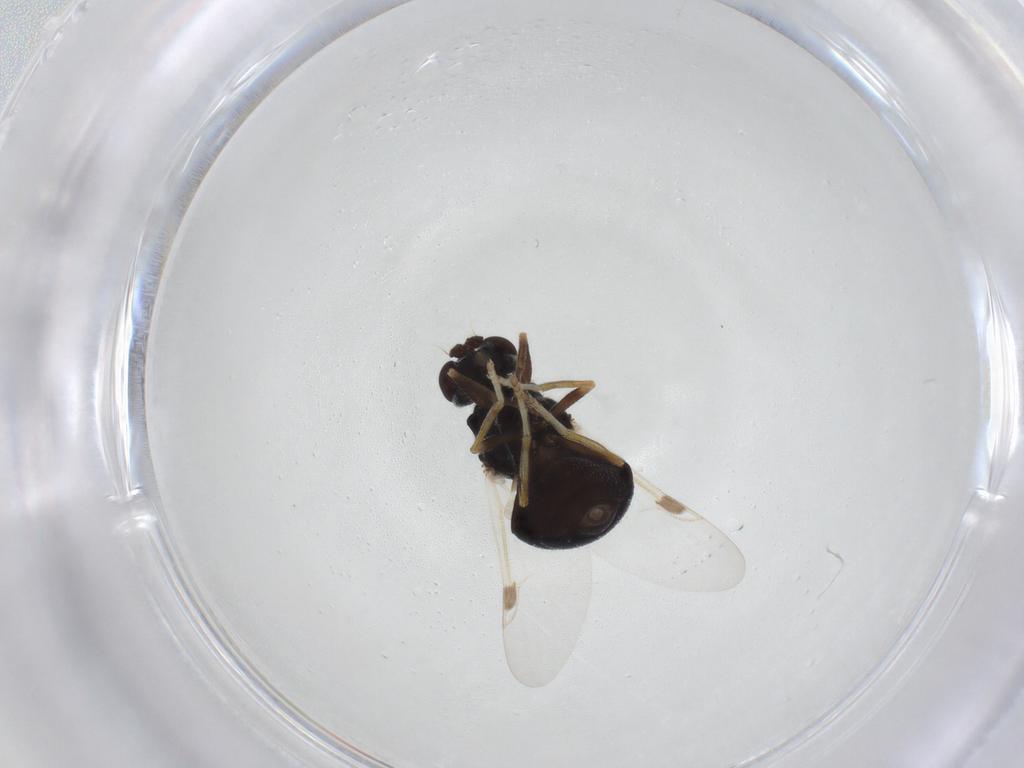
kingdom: Animalia
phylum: Arthropoda
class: Insecta
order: Diptera
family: Stratiomyidae
